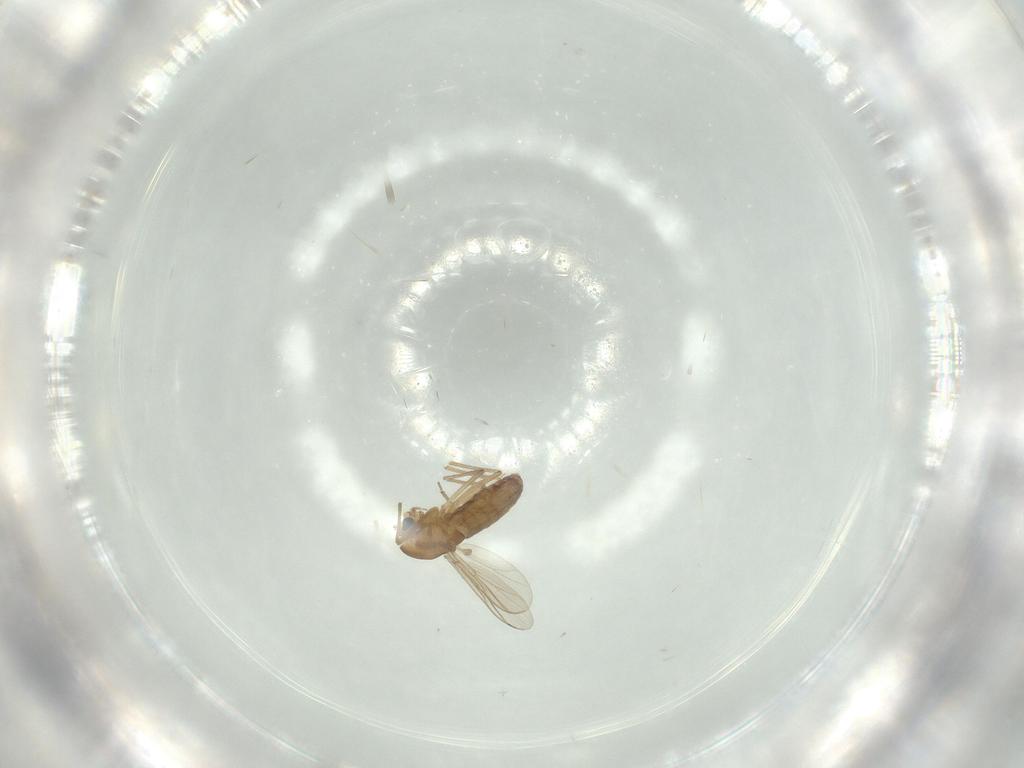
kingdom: Animalia
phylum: Arthropoda
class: Insecta
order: Diptera
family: Chironomidae
